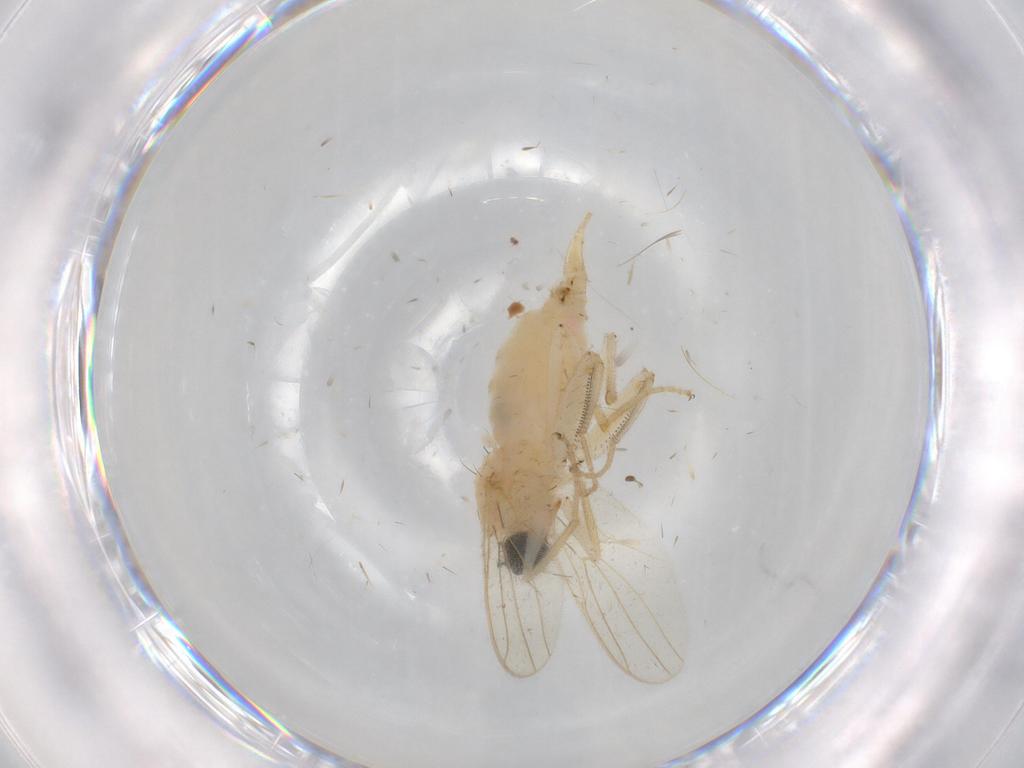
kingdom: Animalia
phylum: Arthropoda
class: Insecta
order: Diptera
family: Hybotidae
